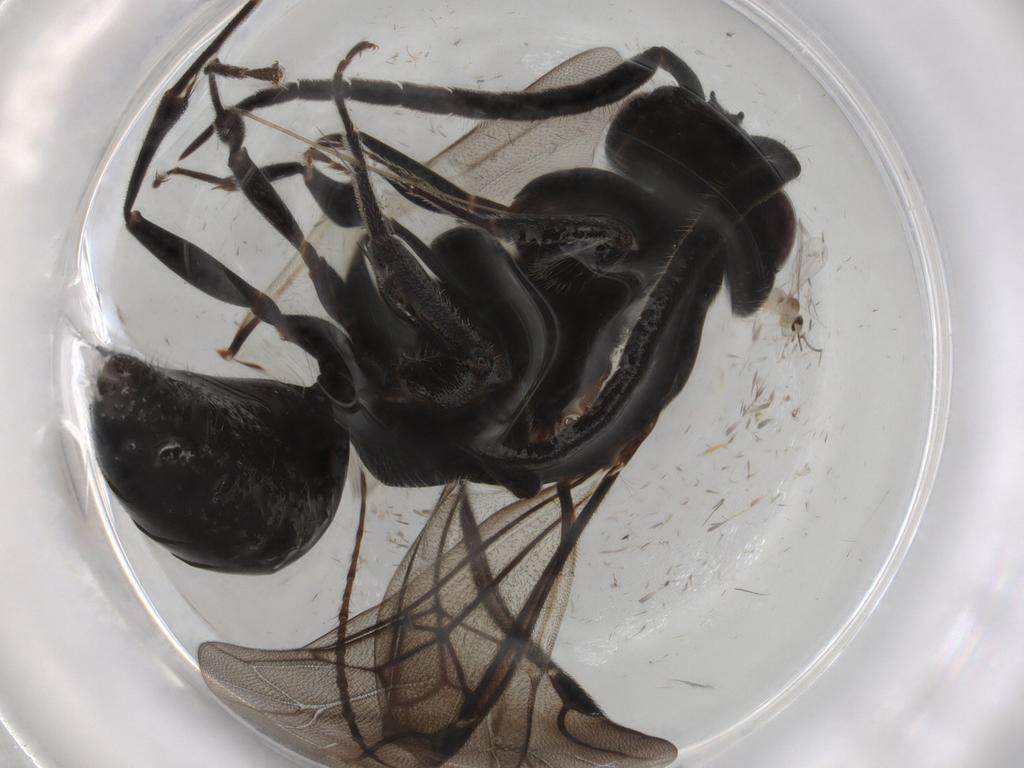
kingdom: Animalia
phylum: Arthropoda
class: Insecta
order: Hymenoptera
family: Bethylidae
